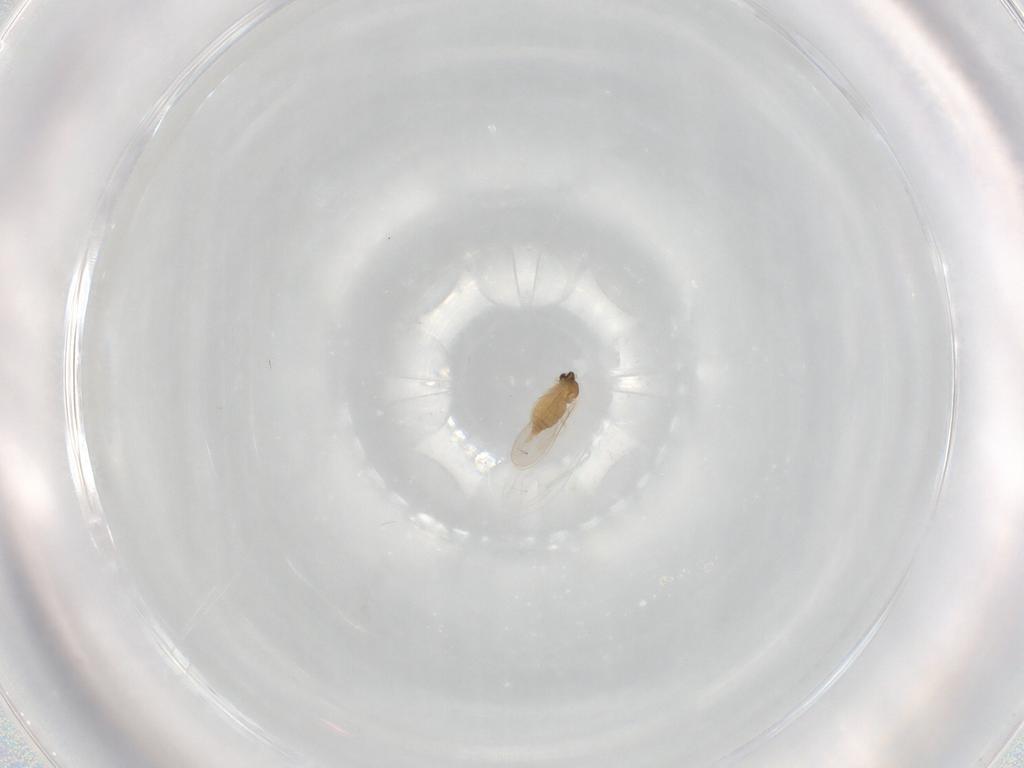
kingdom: Animalia
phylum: Arthropoda
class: Insecta
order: Diptera
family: Cecidomyiidae
